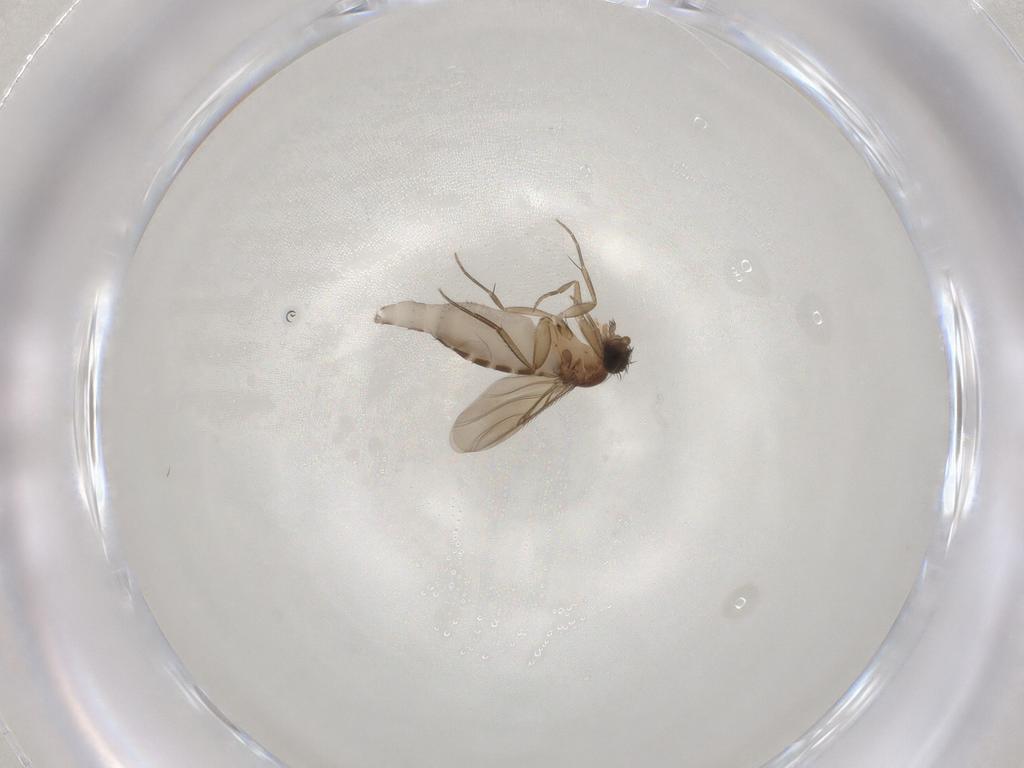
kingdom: Animalia
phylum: Arthropoda
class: Insecta
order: Diptera
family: Phoridae
